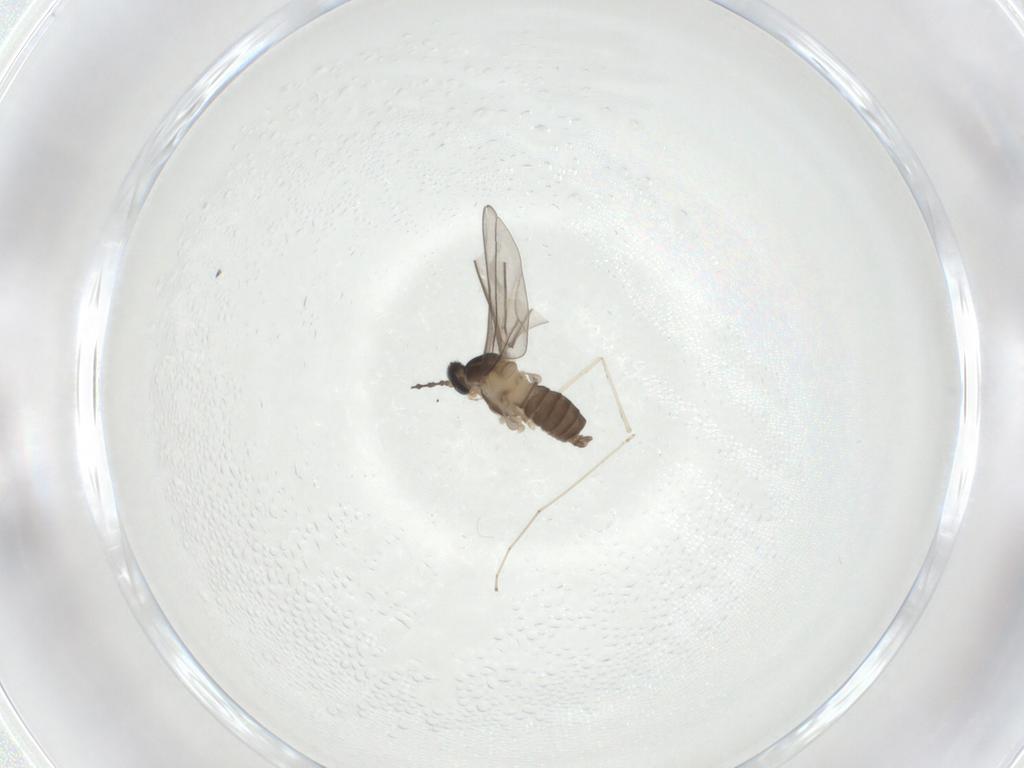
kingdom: Animalia
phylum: Arthropoda
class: Insecta
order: Diptera
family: Cecidomyiidae
